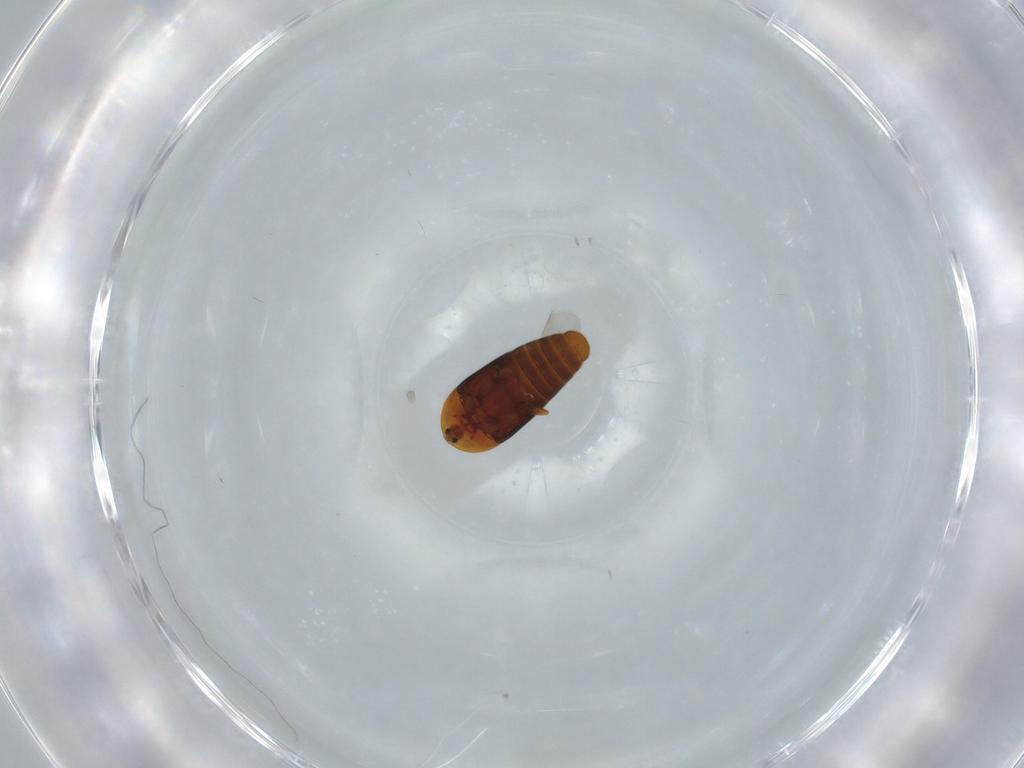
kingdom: Animalia
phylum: Arthropoda
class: Insecta
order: Coleoptera
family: Corylophidae
